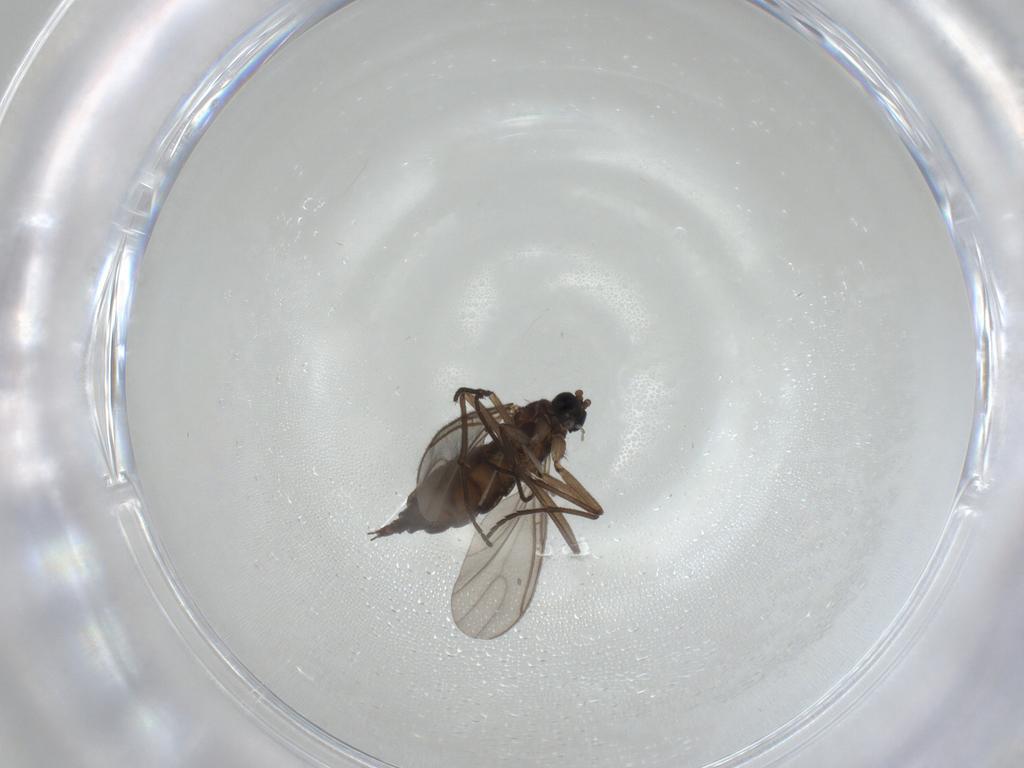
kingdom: Animalia
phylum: Arthropoda
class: Insecta
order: Diptera
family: Sciaridae
